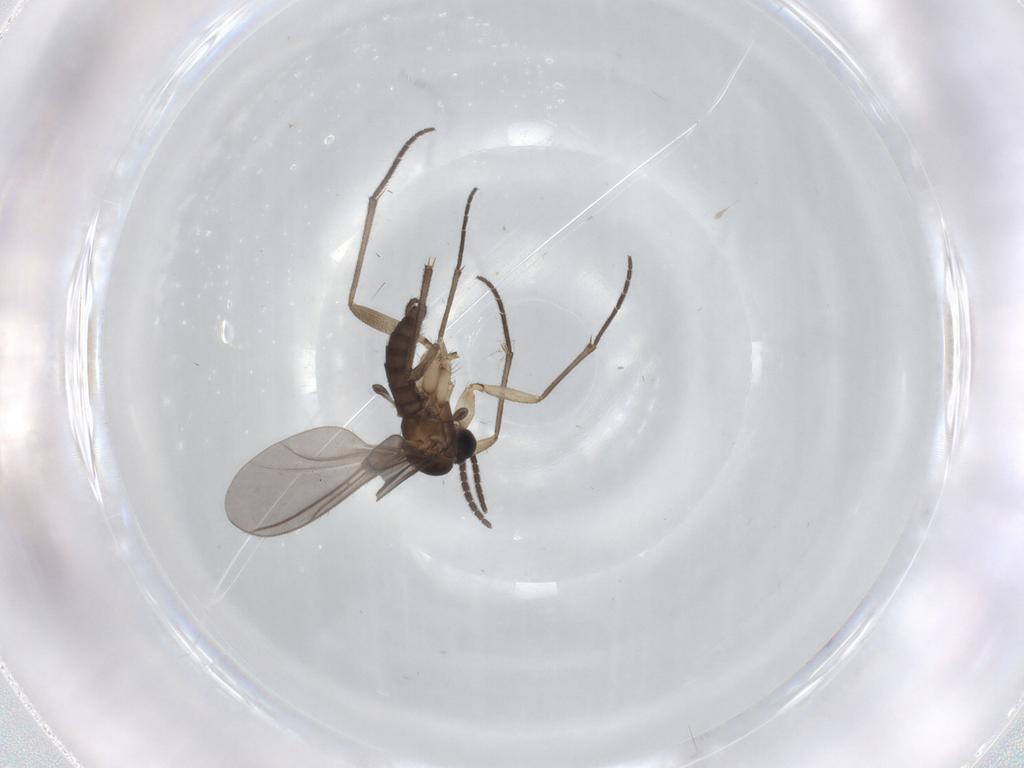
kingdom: Animalia
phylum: Arthropoda
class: Insecta
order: Diptera
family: Sciaridae
